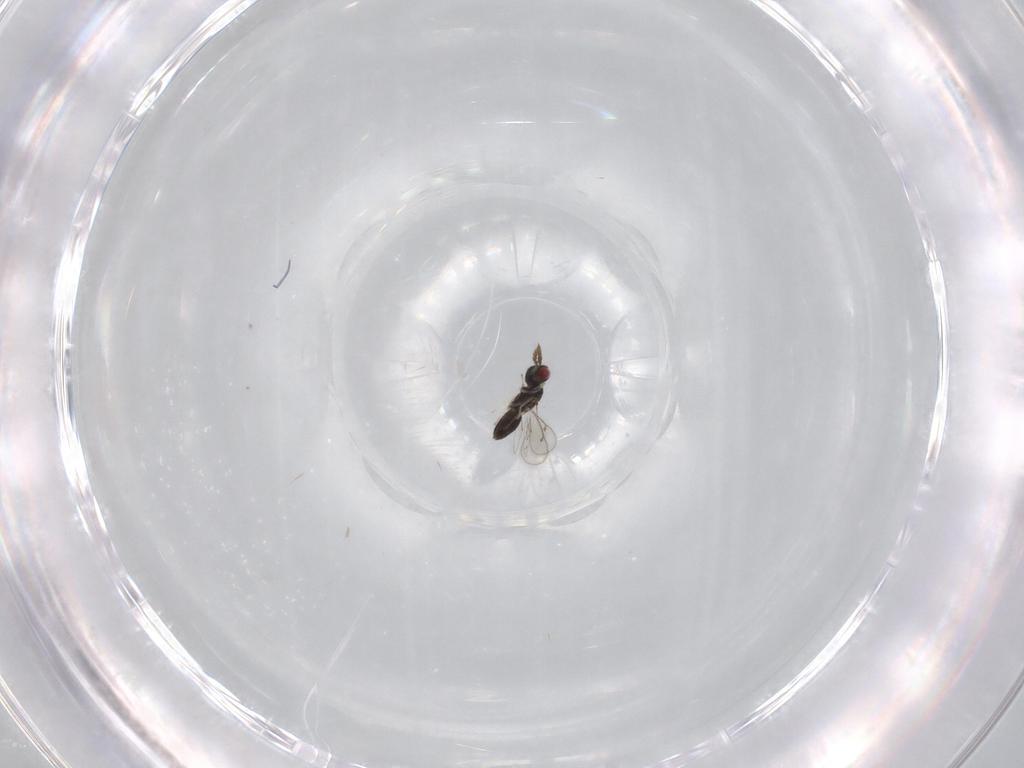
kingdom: Animalia
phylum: Arthropoda
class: Insecta
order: Hymenoptera
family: Eulophidae
